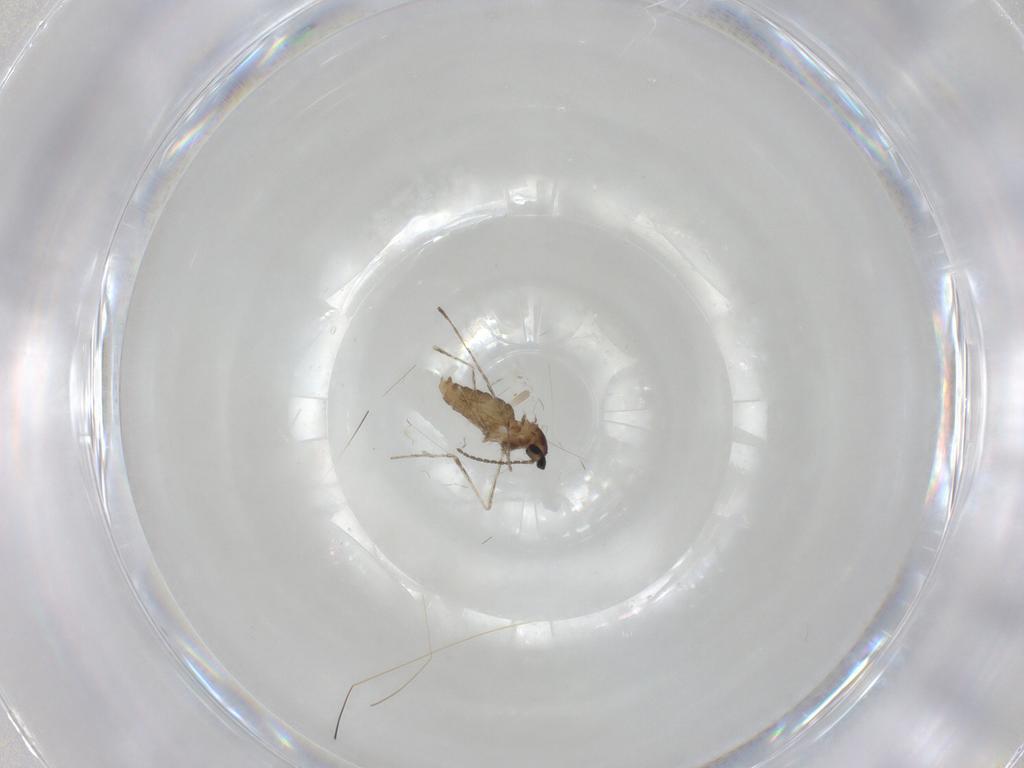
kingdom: Animalia
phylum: Arthropoda
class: Insecta
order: Diptera
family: Cecidomyiidae
